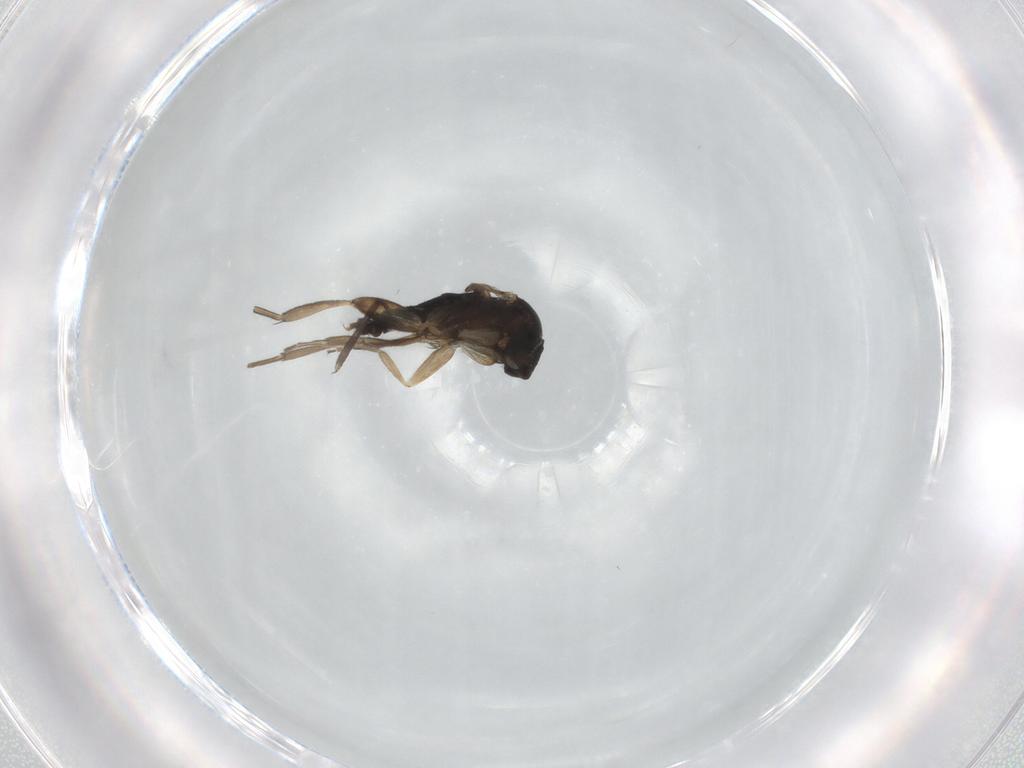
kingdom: Animalia
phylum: Arthropoda
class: Insecta
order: Diptera
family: Phoridae
